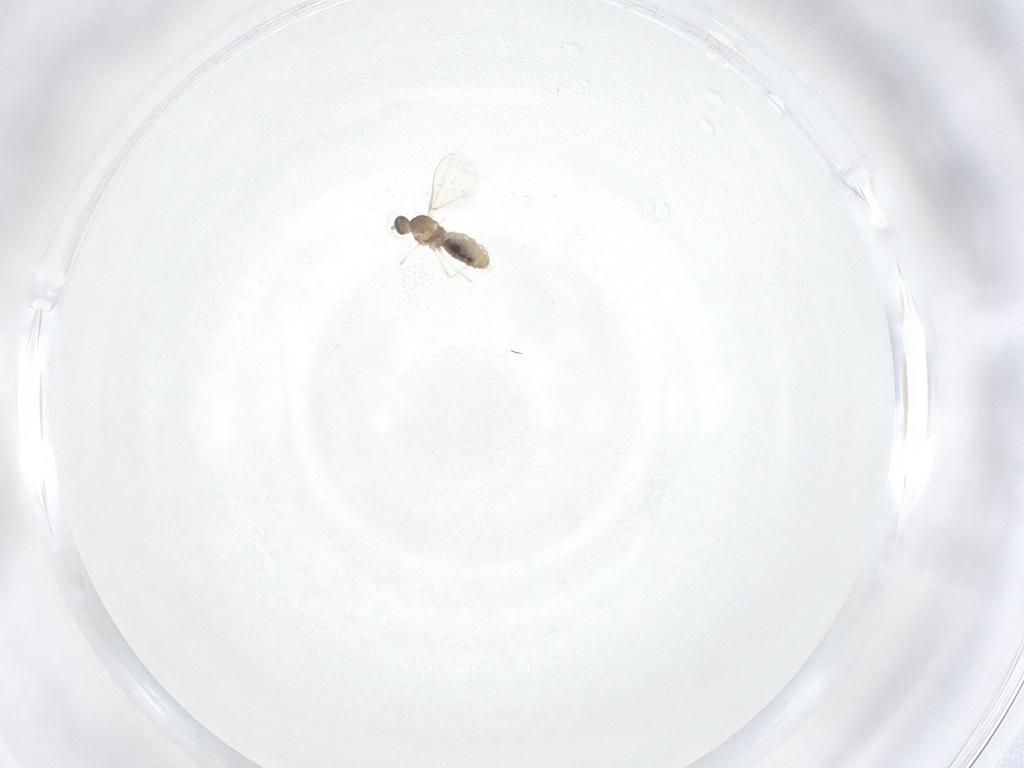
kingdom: Animalia
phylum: Arthropoda
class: Insecta
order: Diptera
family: Cecidomyiidae
